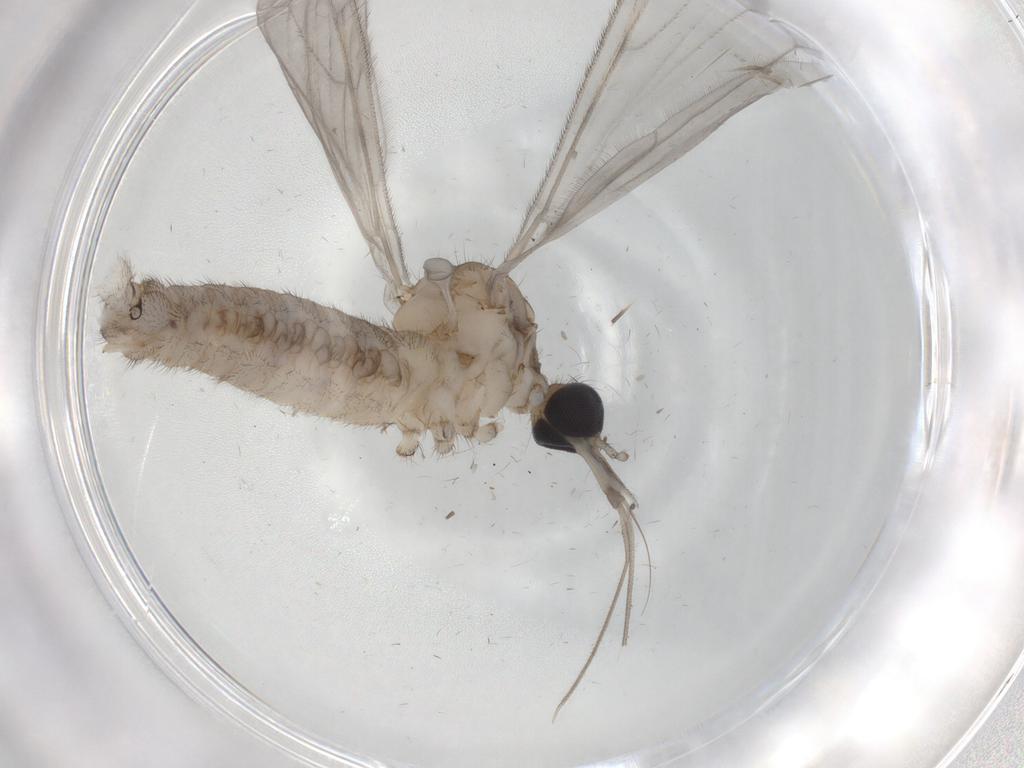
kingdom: Animalia
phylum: Arthropoda
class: Insecta
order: Diptera
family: Limoniidae
